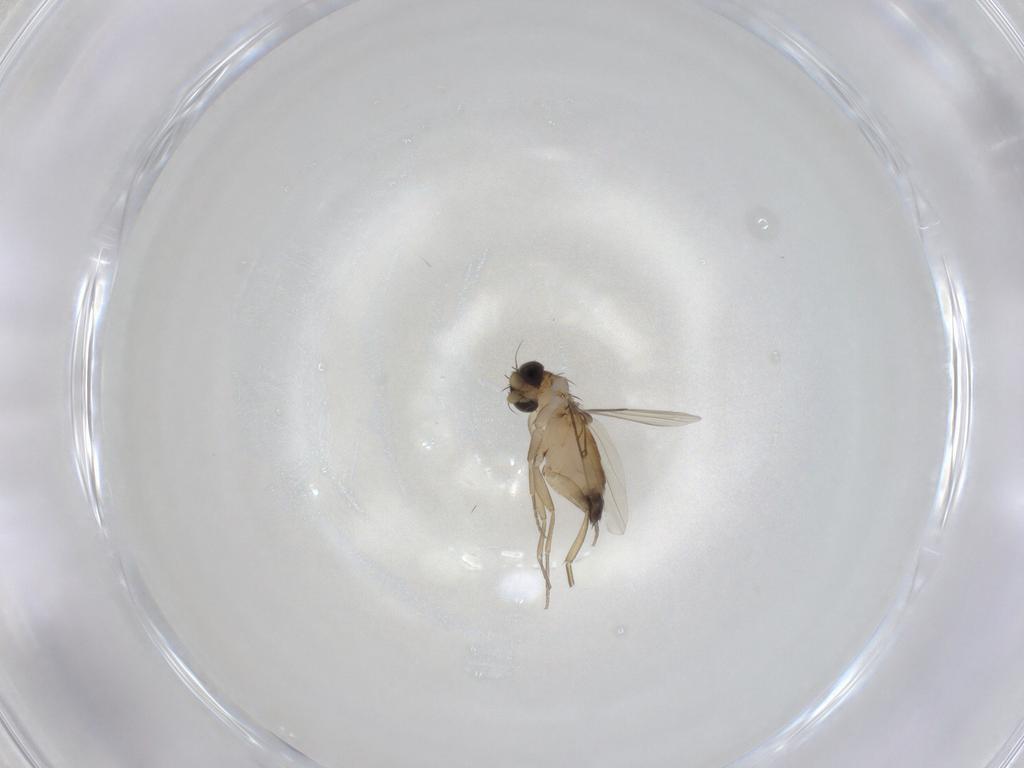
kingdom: Animalia
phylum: Arthropoda
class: Insecta
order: Diptera
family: Phoridae
